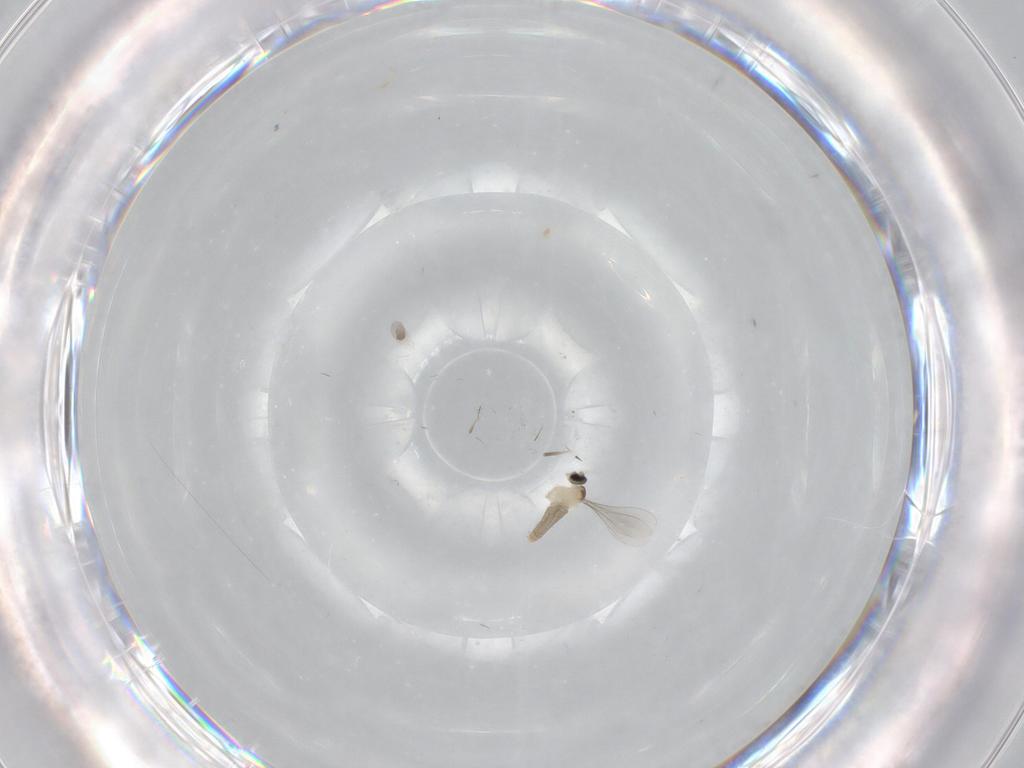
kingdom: Animalia
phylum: Arthropoda
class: Insecta
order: Diptera
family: Cecidomyiidae
